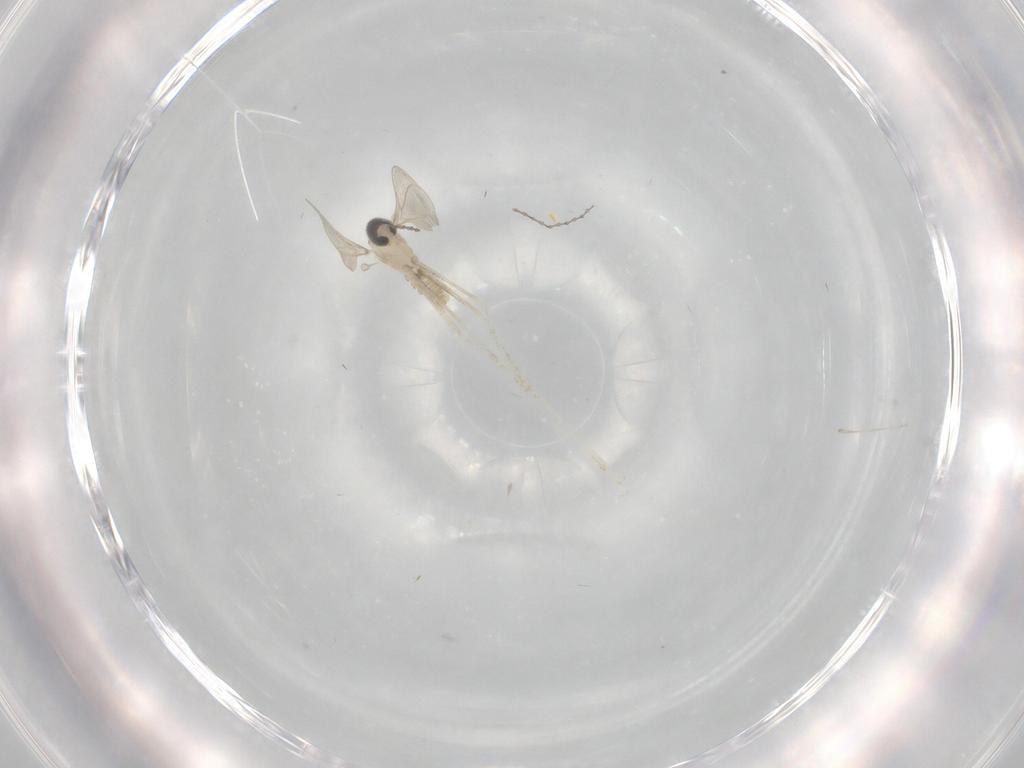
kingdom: Animalia
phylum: Arthropoda
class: Insecta
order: Diptera
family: Cecidomyiidae
